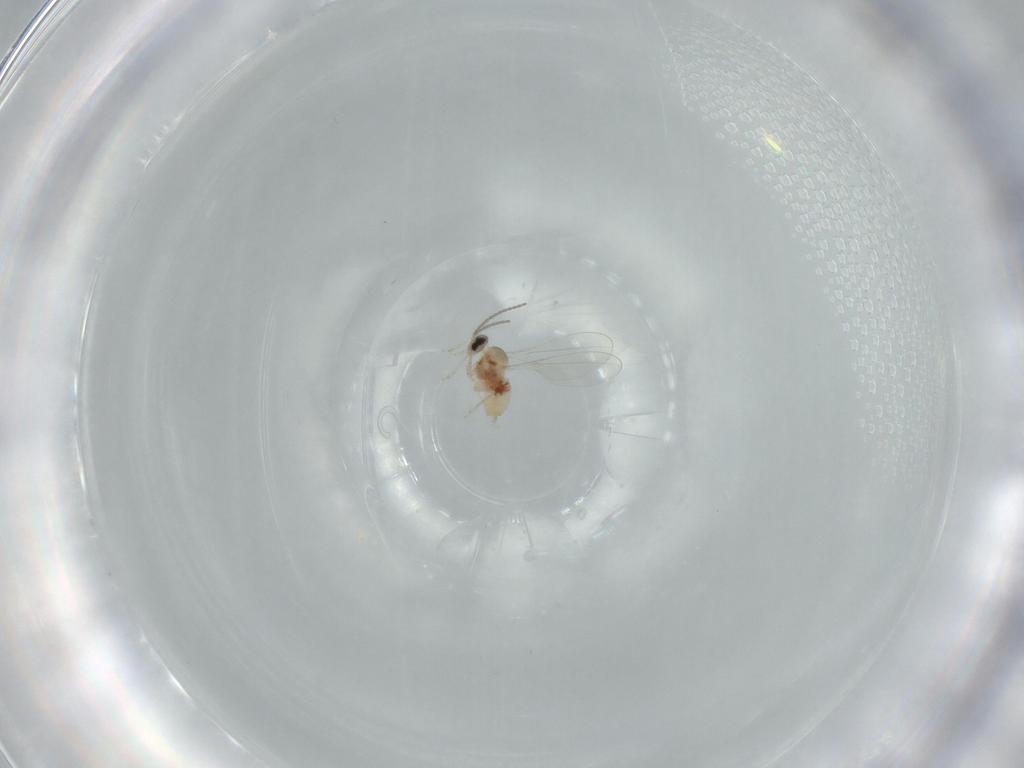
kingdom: Animalia
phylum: Arthropoda
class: Insecta
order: Diptera
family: Cecidomyiidae
